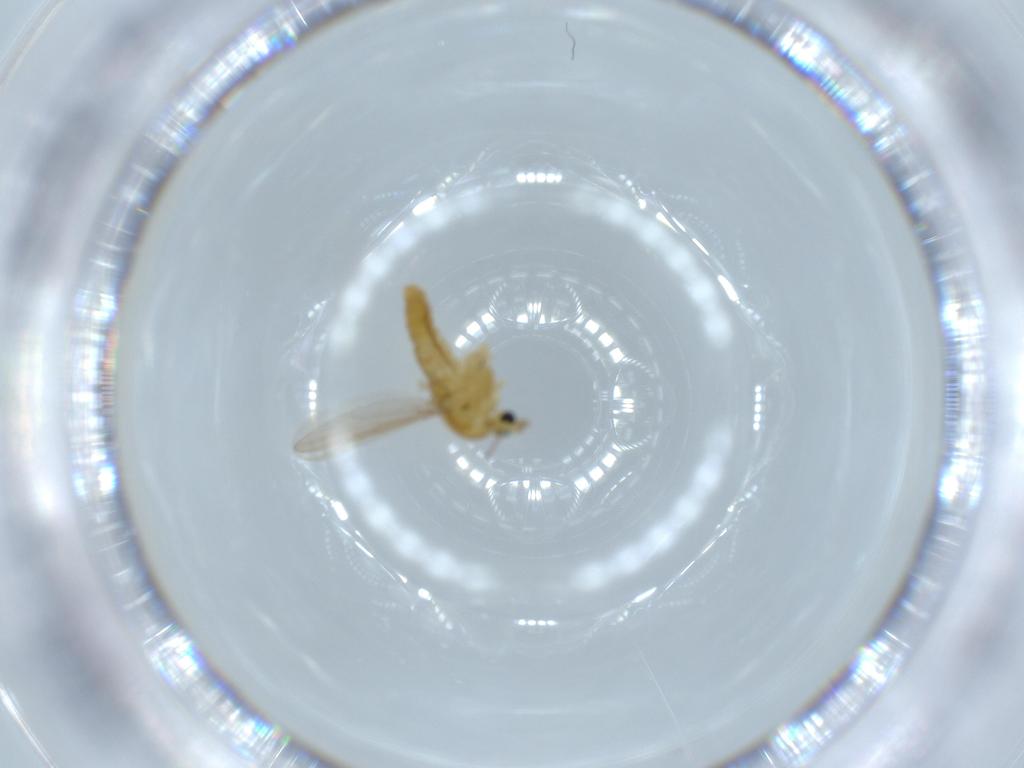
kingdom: Animalia
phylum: Arthropoda
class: Insecta
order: Diptera
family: Chironomidae
